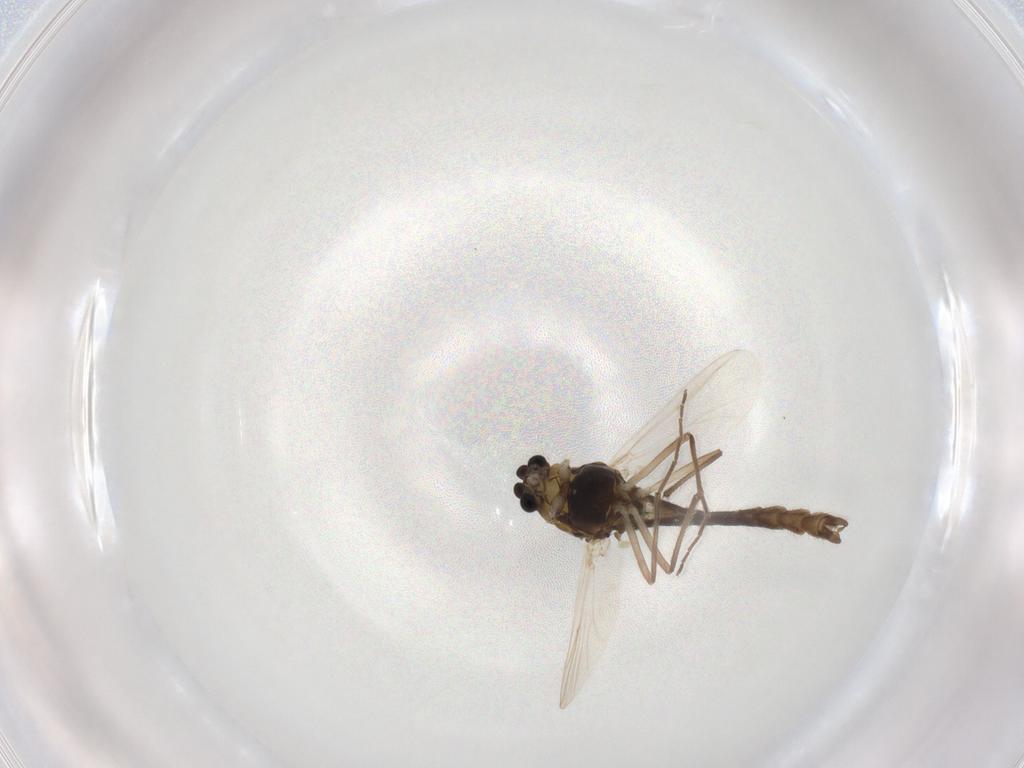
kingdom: Animalia
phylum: Arthropoda
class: Insecta
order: Diptera
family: Chironomidae
